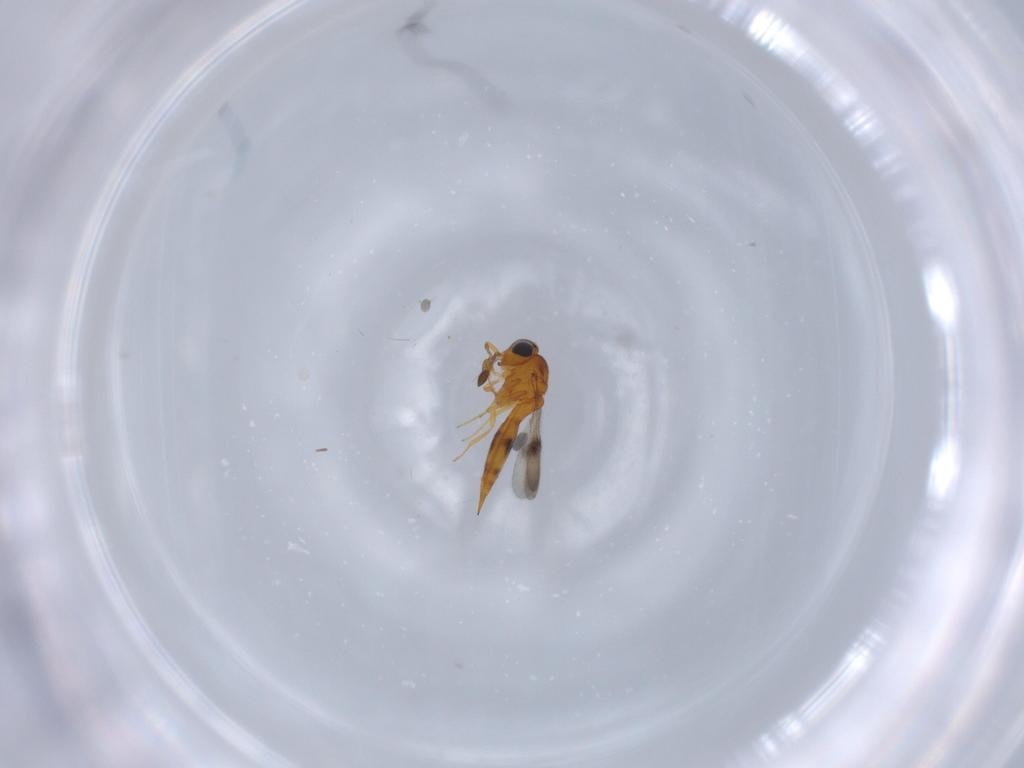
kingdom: Animalia
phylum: Arthropoda
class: Insecta
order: Hymenoptera
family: Scelionidae
